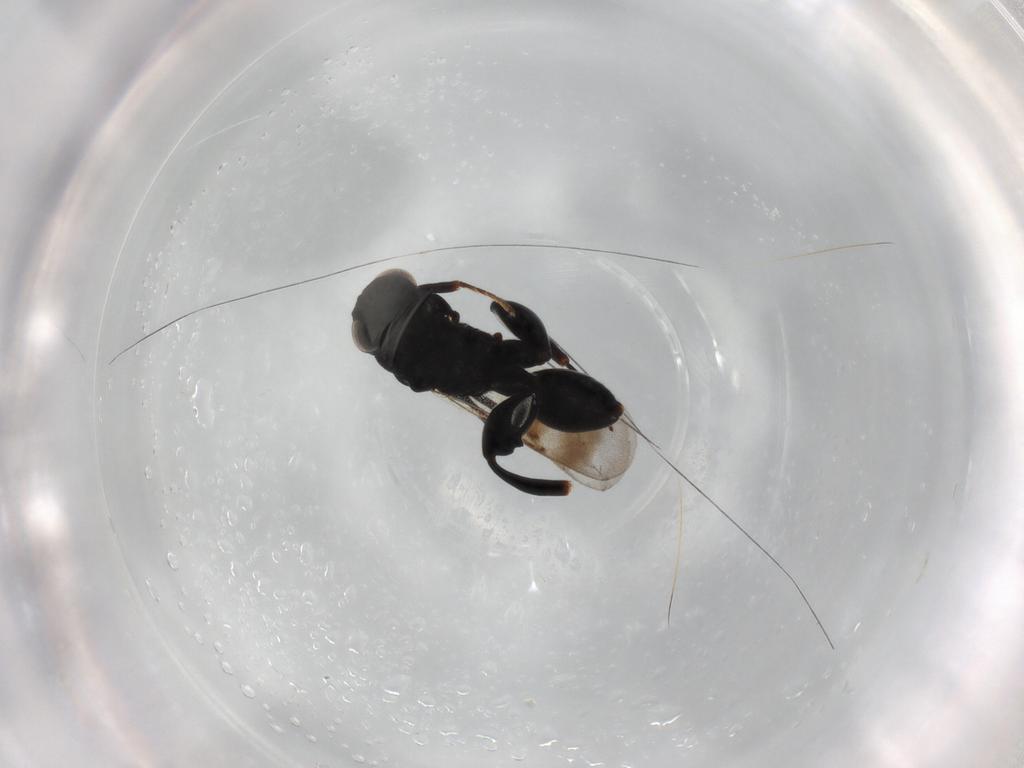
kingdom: Animalia
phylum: Arthropoda
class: Insecta
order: Hymenoptera
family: Chalcididae
